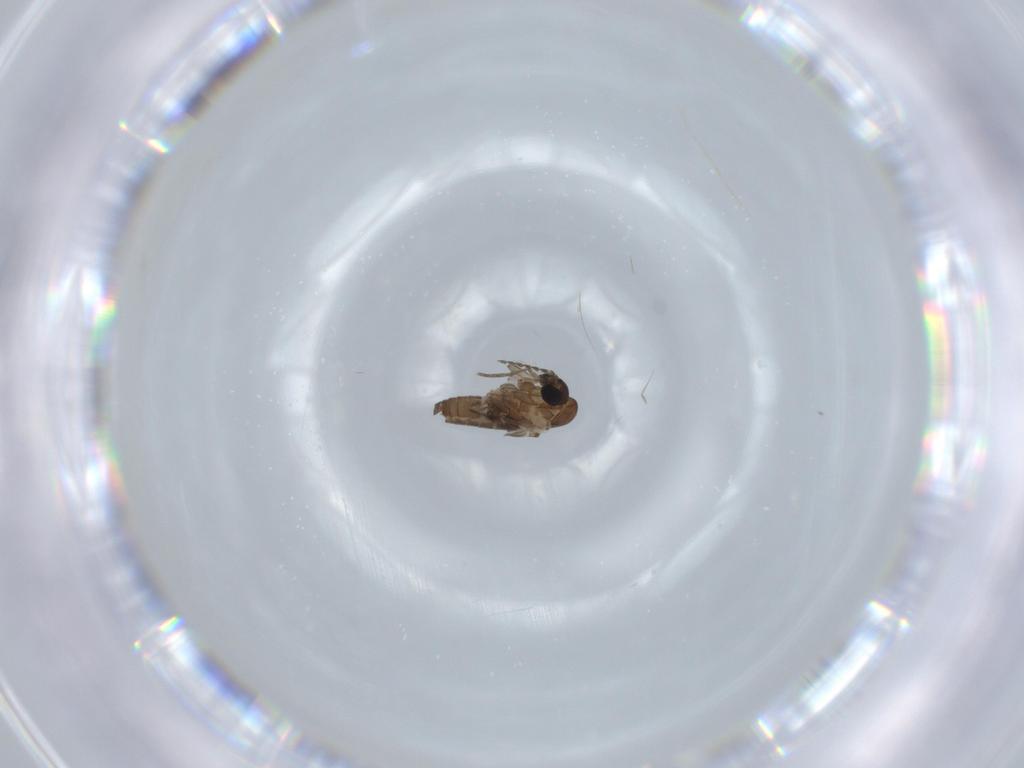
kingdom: Animalia
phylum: Arthropoda
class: Insecta
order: Diptera
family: Psychodidae
